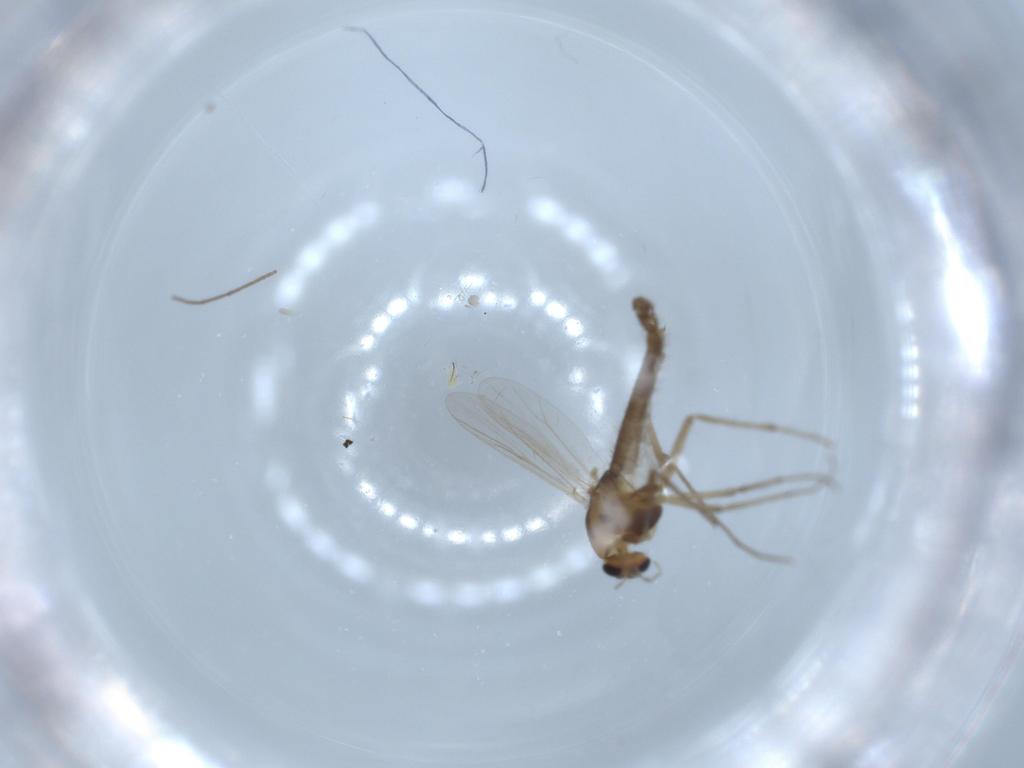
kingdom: Animalia
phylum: Arthropoda
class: Insecta
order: Diptera
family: Chironomidae
